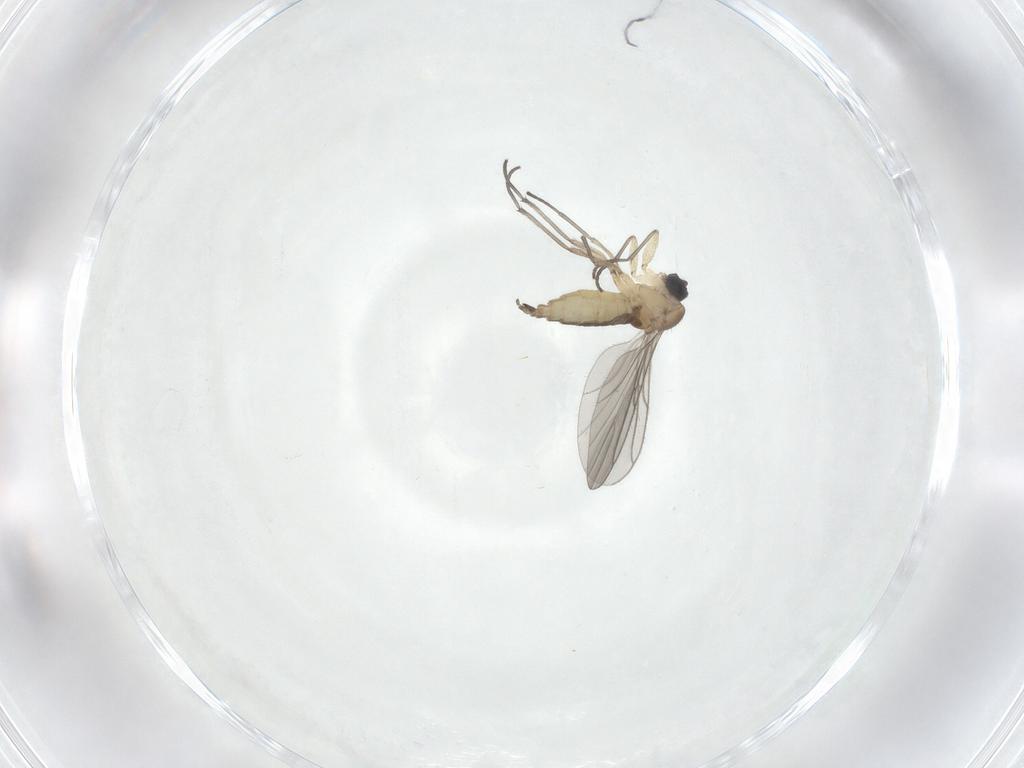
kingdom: Animalia
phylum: Arthropoda
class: Insecta
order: Diptera
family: Sciaridae
